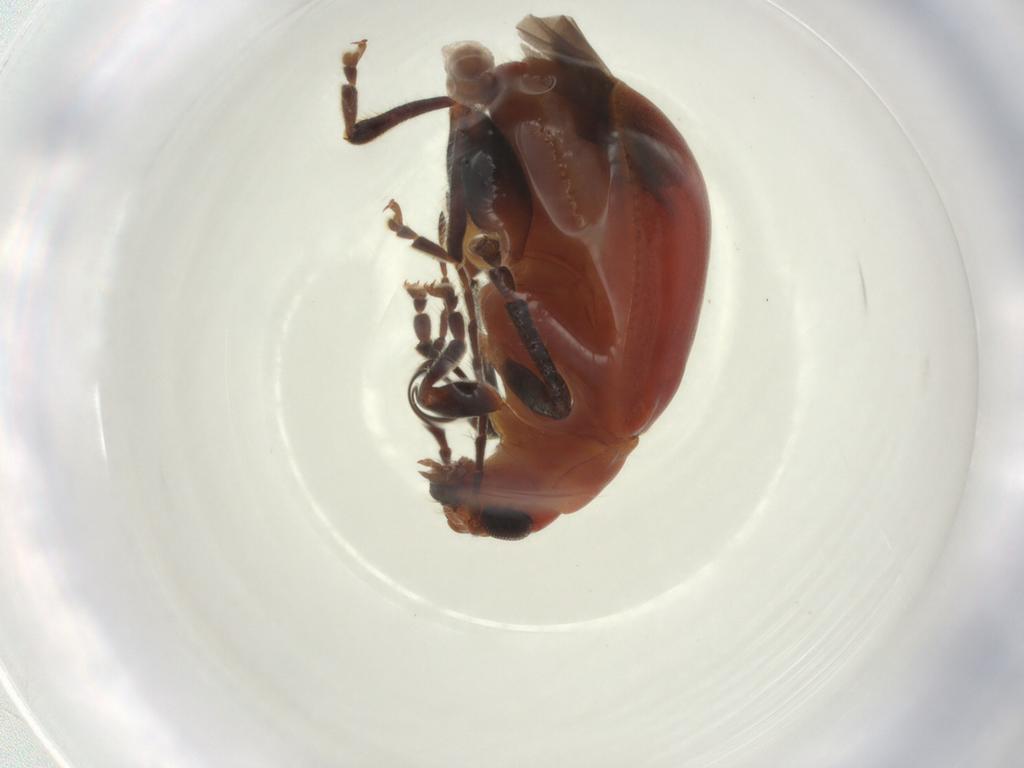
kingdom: Animalia
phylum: Arthropoda
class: Insecta
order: Coleoptera
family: Chrysomelidae
